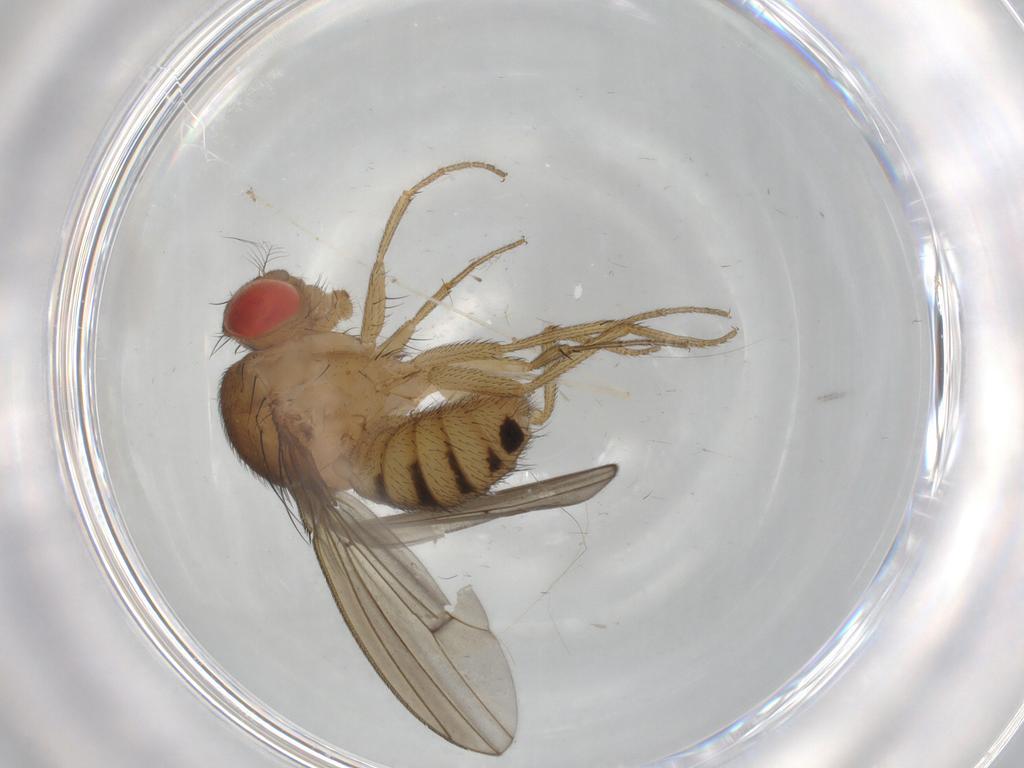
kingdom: Animalia
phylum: Arthropoda
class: Insecta
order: Diptera
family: Drosophilidae
